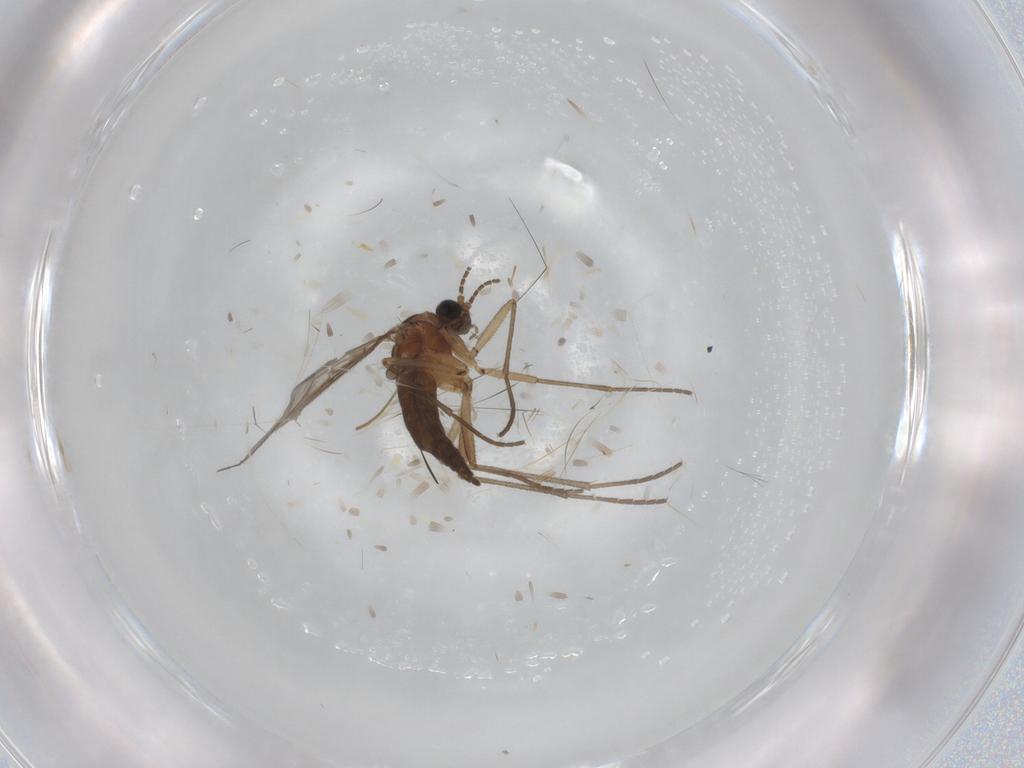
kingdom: Animalia
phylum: Arthropoda
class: Insecta
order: Diptera
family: Sciaridae
